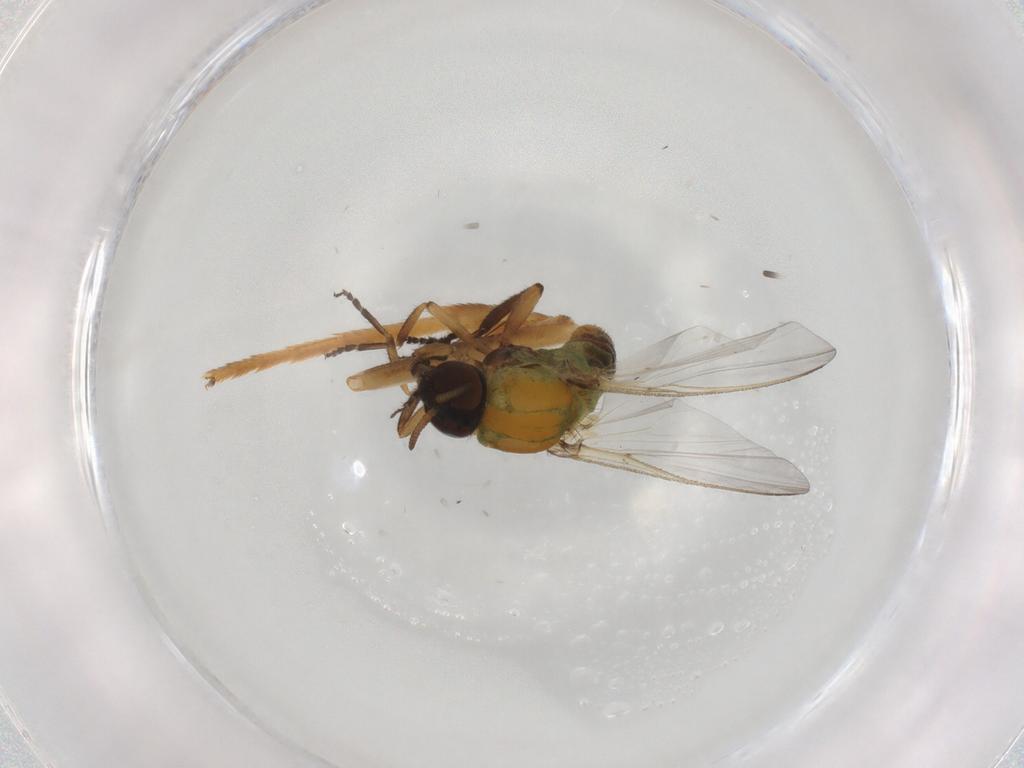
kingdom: Animalia
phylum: Arthropoda
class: Insecta
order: Diptera
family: Simuliidae
